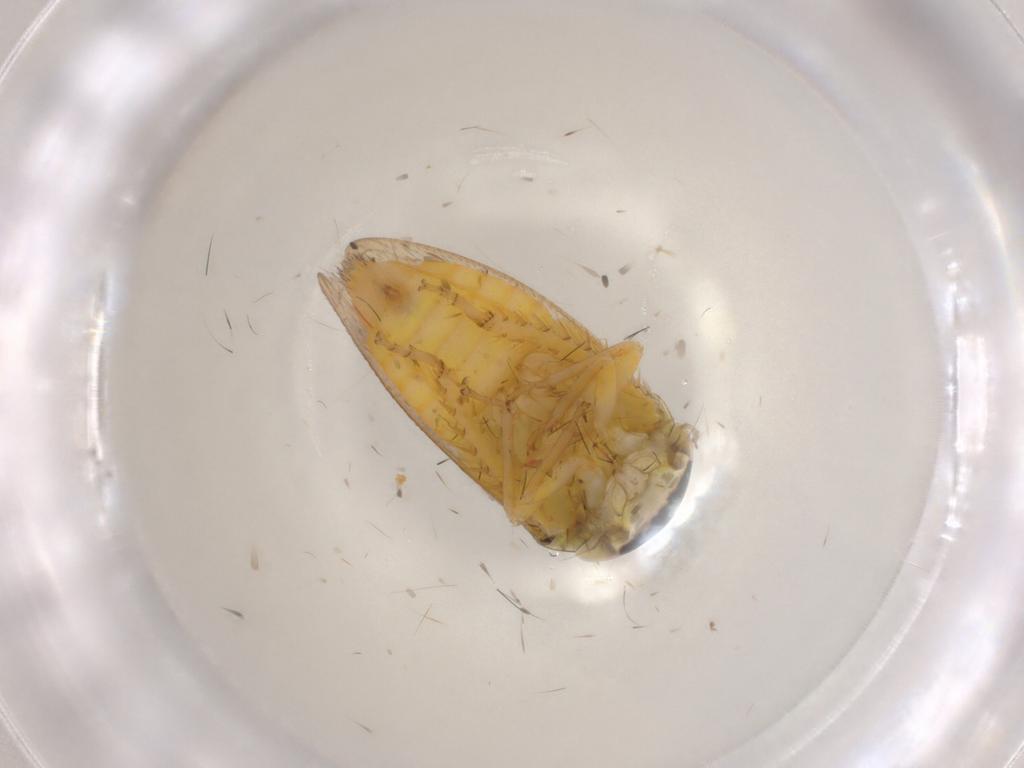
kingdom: Animalia
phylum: Arthropoda
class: Insecta
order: Hemiptera
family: Cicadellidae
